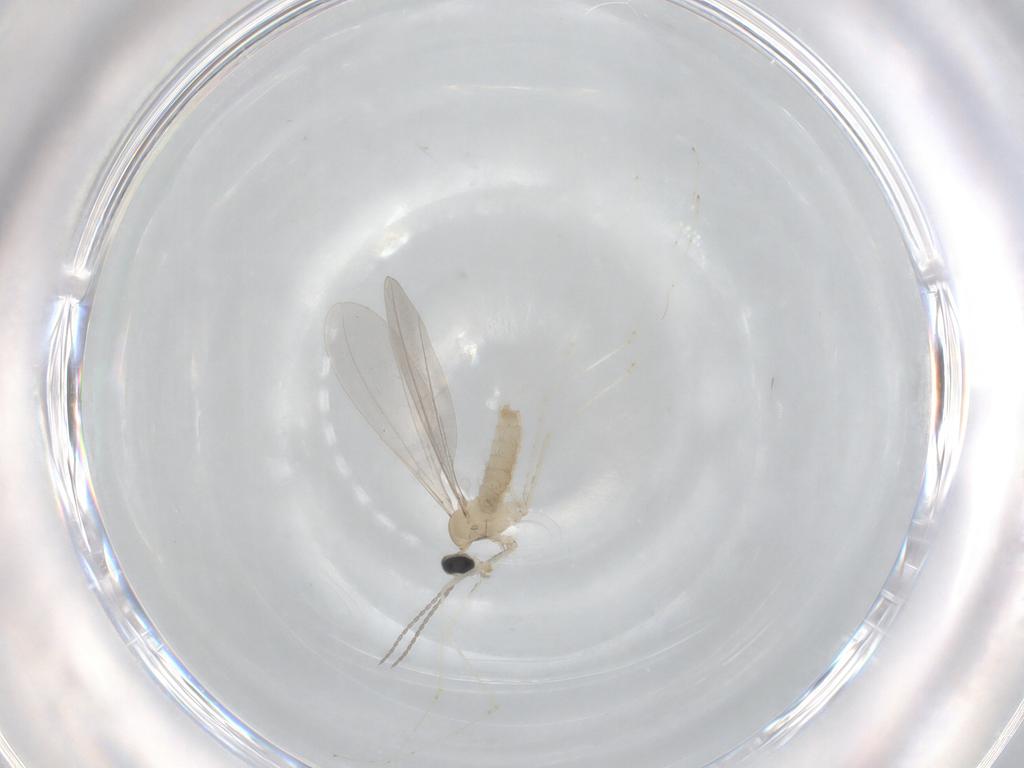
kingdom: Animalia
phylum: Arthropoda
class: Insecta
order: Diptera
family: Cecidomyiidae
